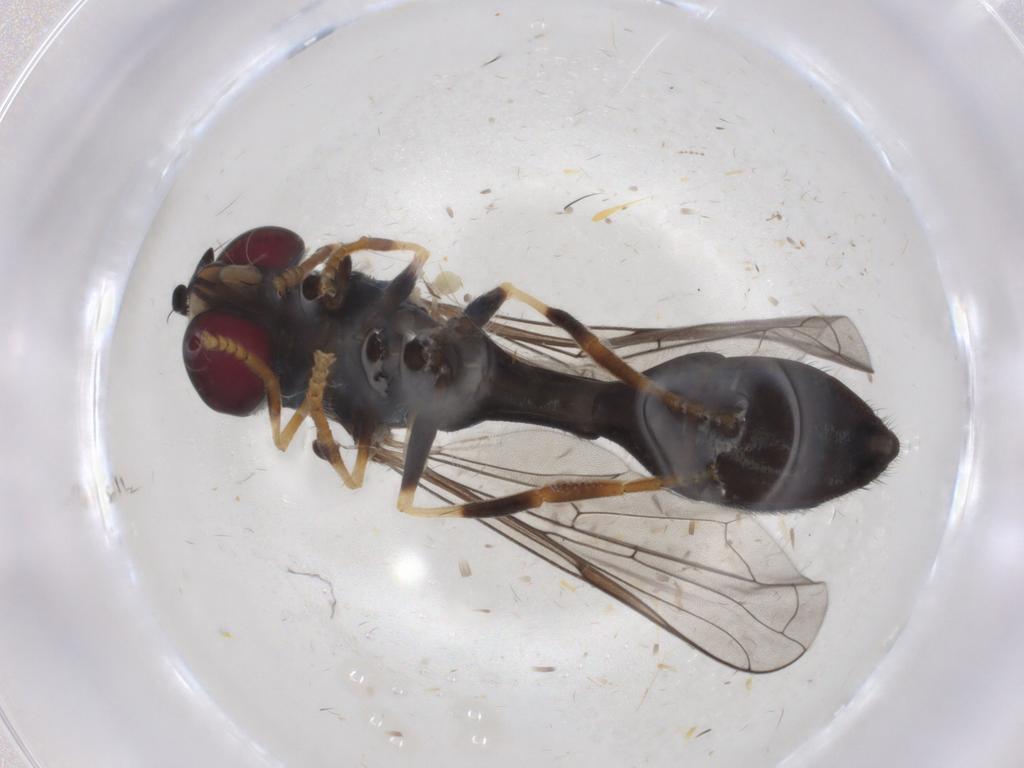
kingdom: Animalia
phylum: Arthropoda
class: Insecta
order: Diptera
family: Syrphidae
